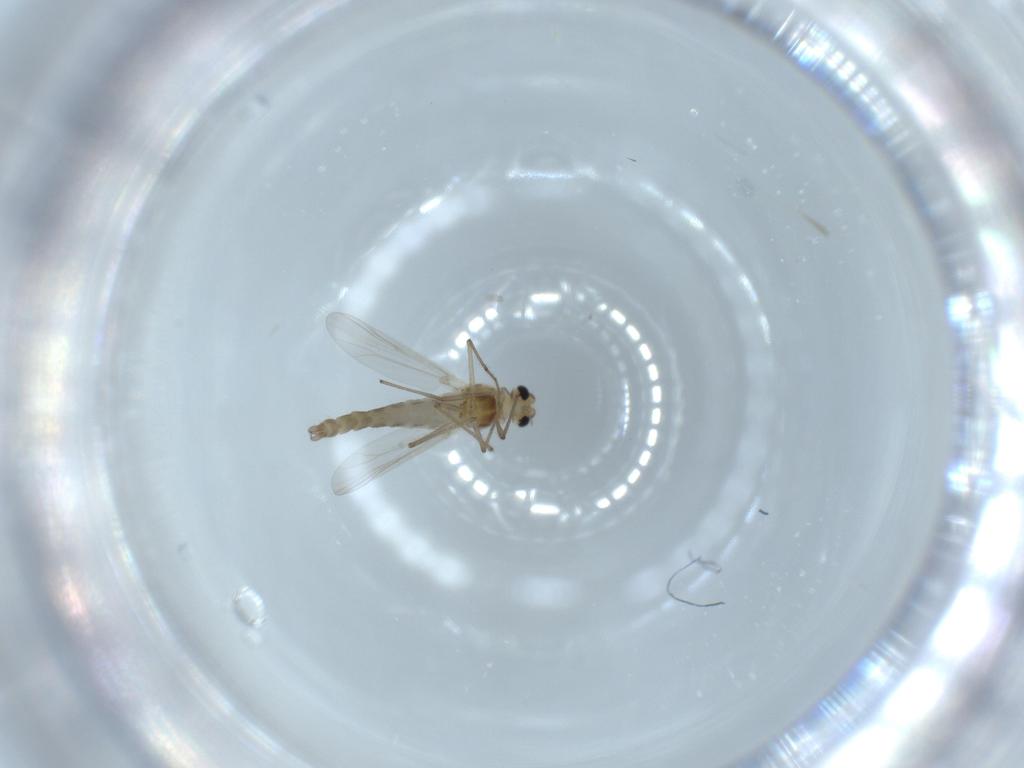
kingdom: Animalia
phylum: Arthropoda
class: Insecta
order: Diptera
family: Chironomidae
